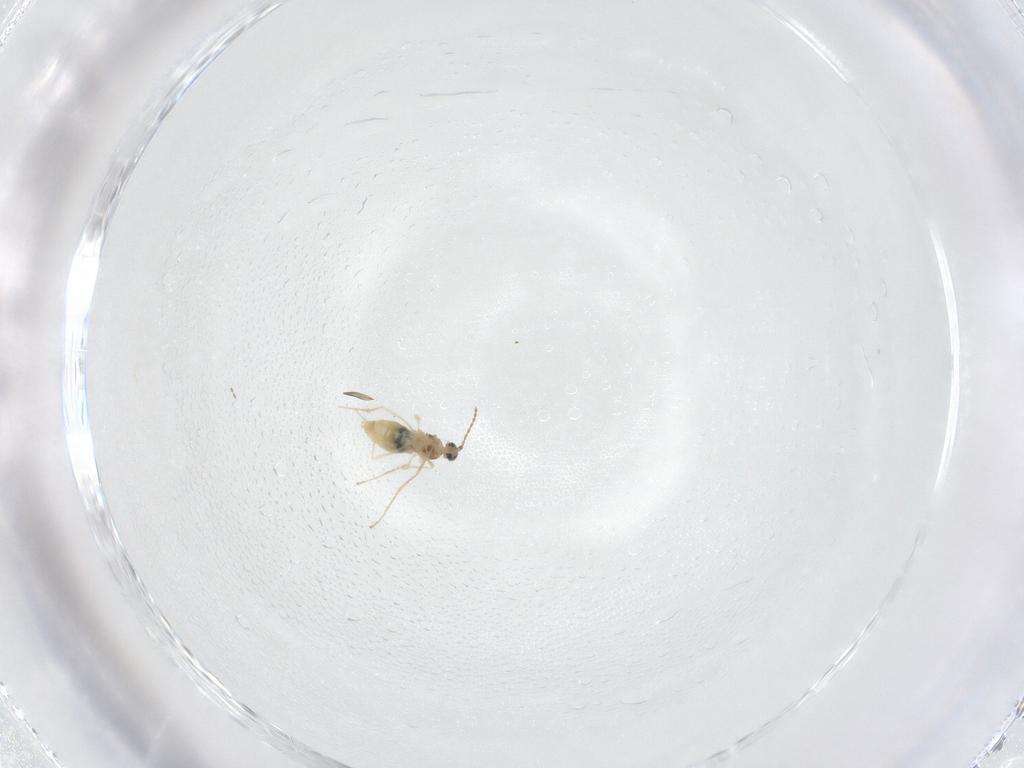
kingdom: Animalia
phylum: Arthropoda
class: Insecta
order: Diptera
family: Cecidomyiidae
